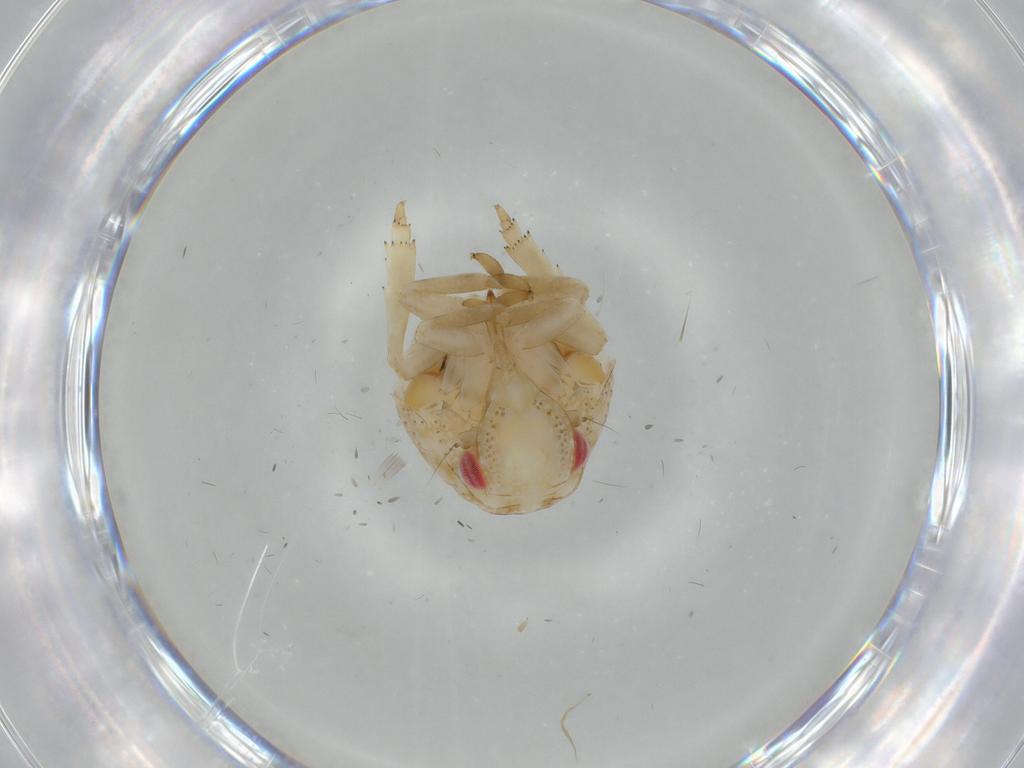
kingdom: Animalia
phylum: Arthropoda
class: Insecta
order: Hemiptera
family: Acanaloniidae
